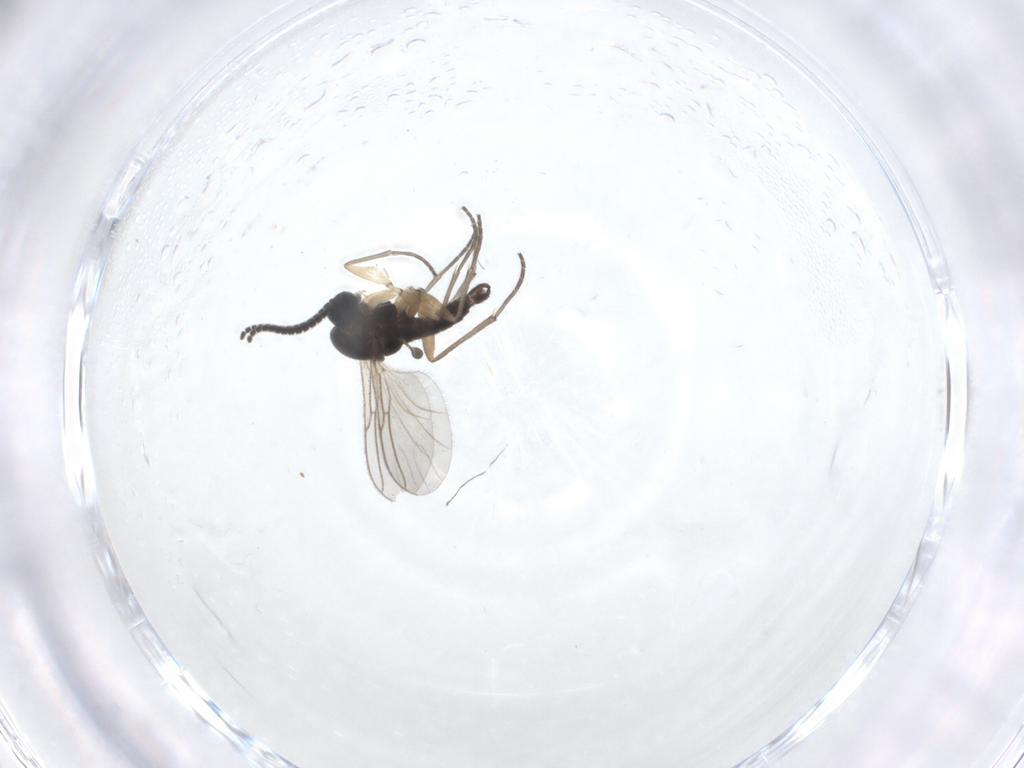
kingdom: Animalia
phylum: Arthropoda
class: Insecta
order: Diptera
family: Sciaridae
